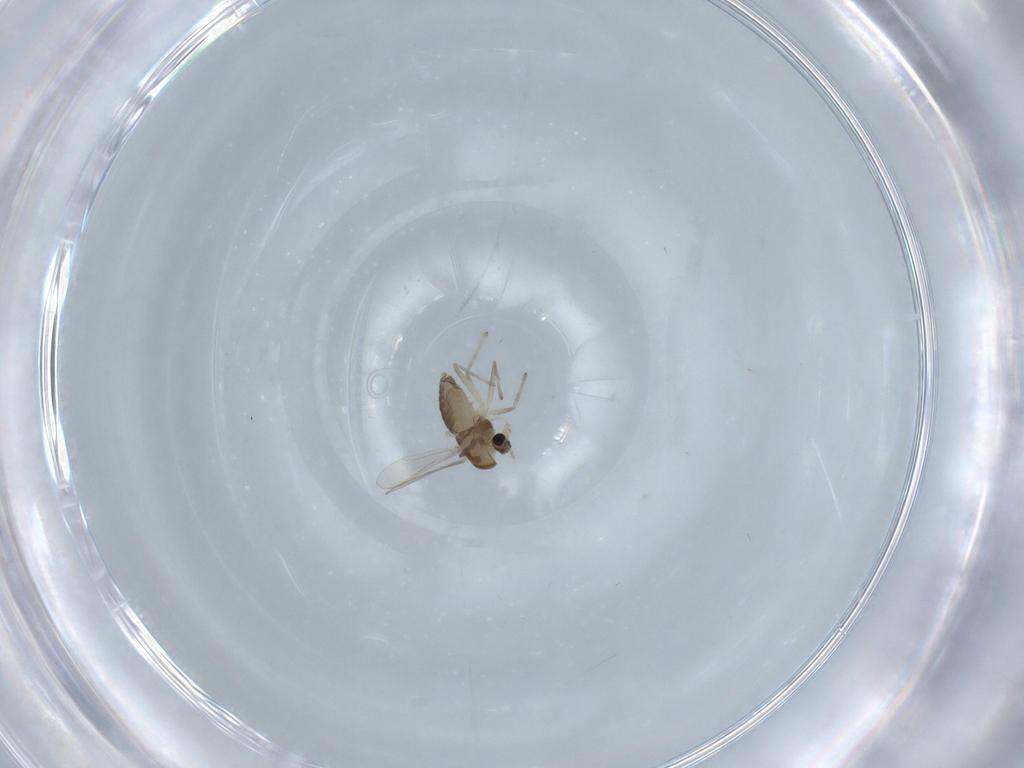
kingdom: Animalia
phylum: Arthropoda
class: Insecta
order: Diptera
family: Chironomidae
